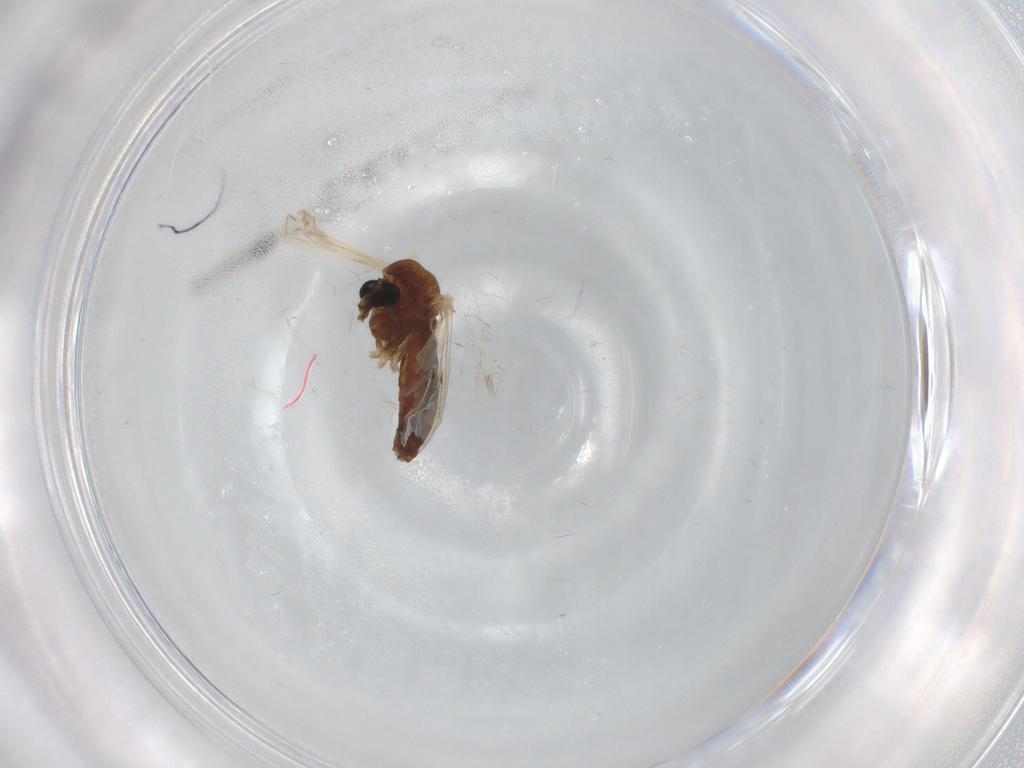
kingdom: Animalia
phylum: Arthropoda
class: Insecta
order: Diptera
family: Chironomidae
